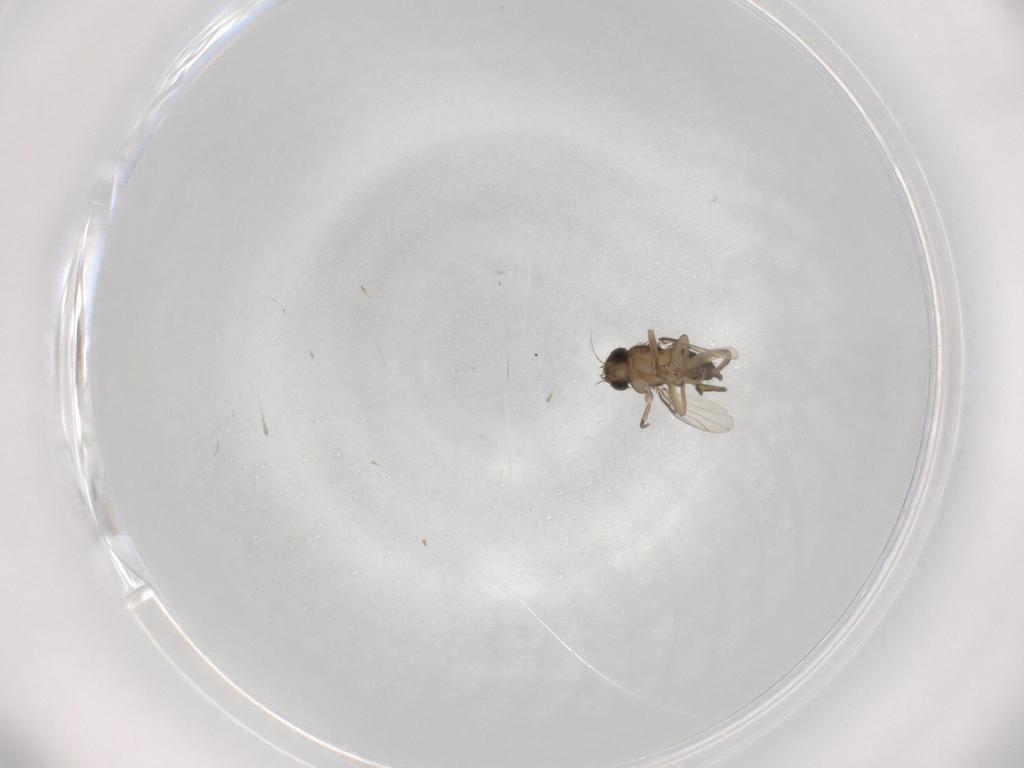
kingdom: Animalia
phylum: Arthropoda
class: Insecta
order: Diptera
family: Phoridae
